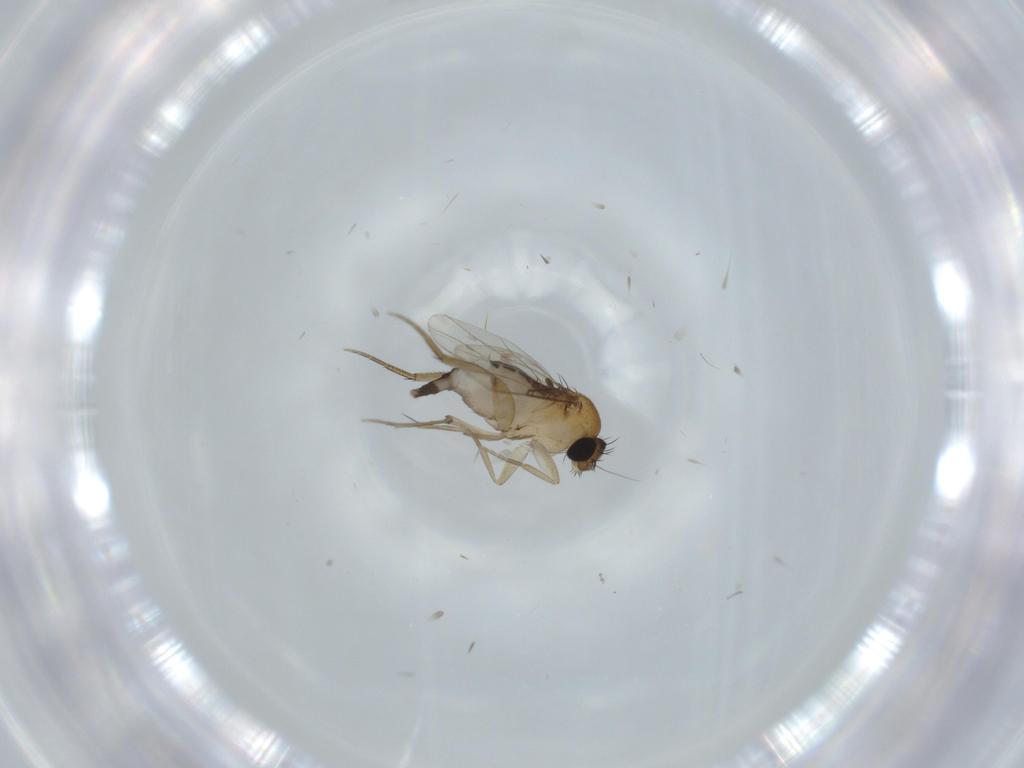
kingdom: Animalia
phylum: Arthropoda
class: Insecta
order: Diptera
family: Phoridae
